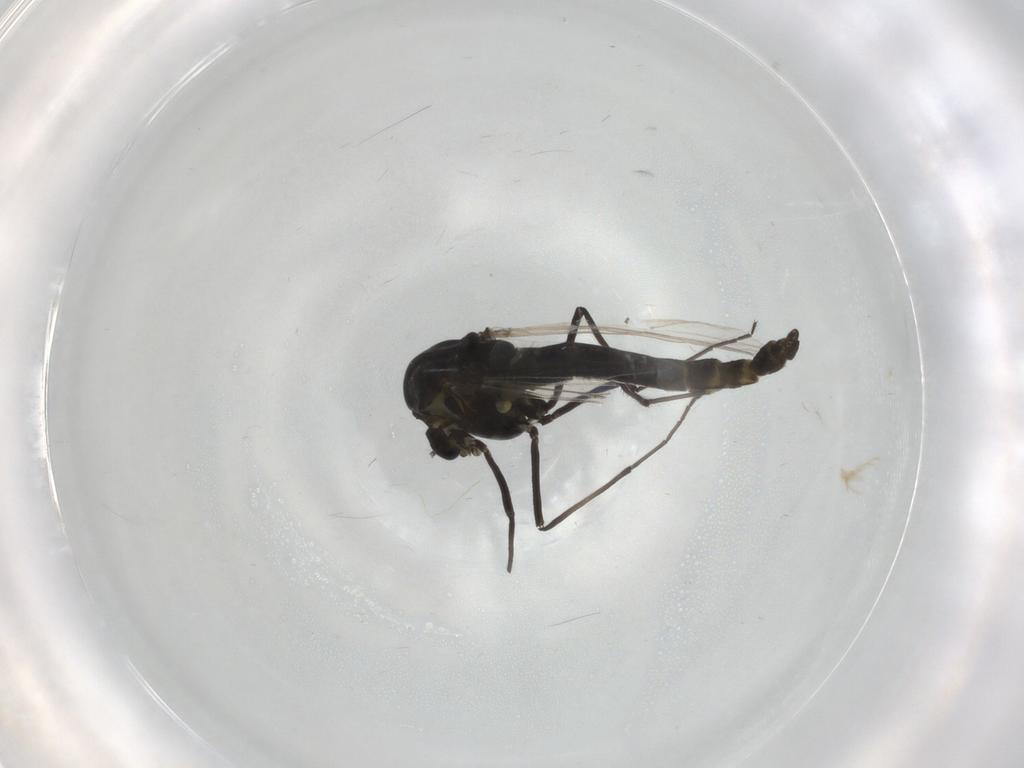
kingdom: Animalia
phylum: Arthropoda
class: Insecta
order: Diptera
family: Sciaridae
